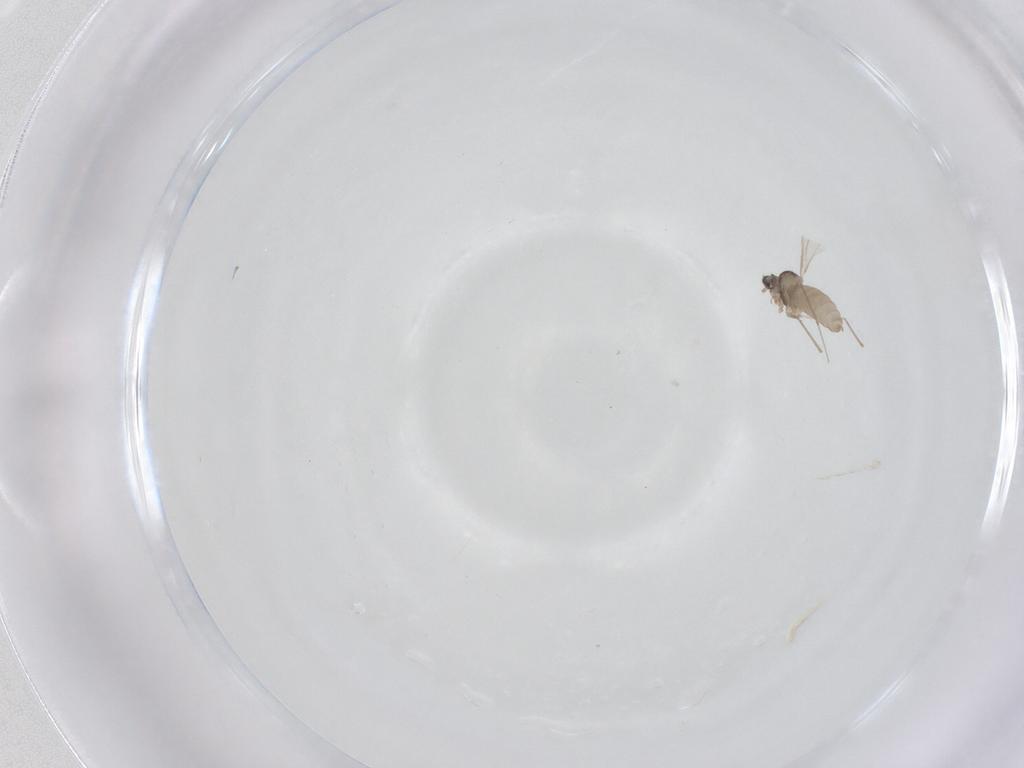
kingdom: Animalia
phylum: Arthropoda
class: Insecta
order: Diptera
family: Cecidomyiidae
